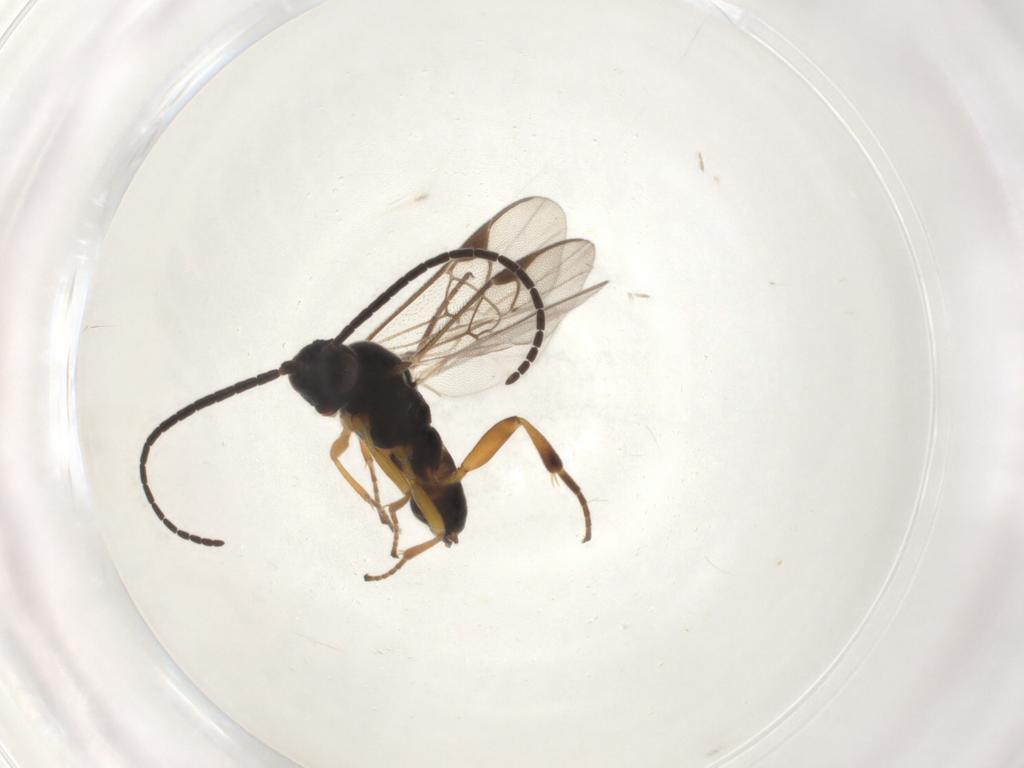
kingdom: Animalia
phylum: Arthropoda
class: Insecta
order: Hymenoptera
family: Braconidae
